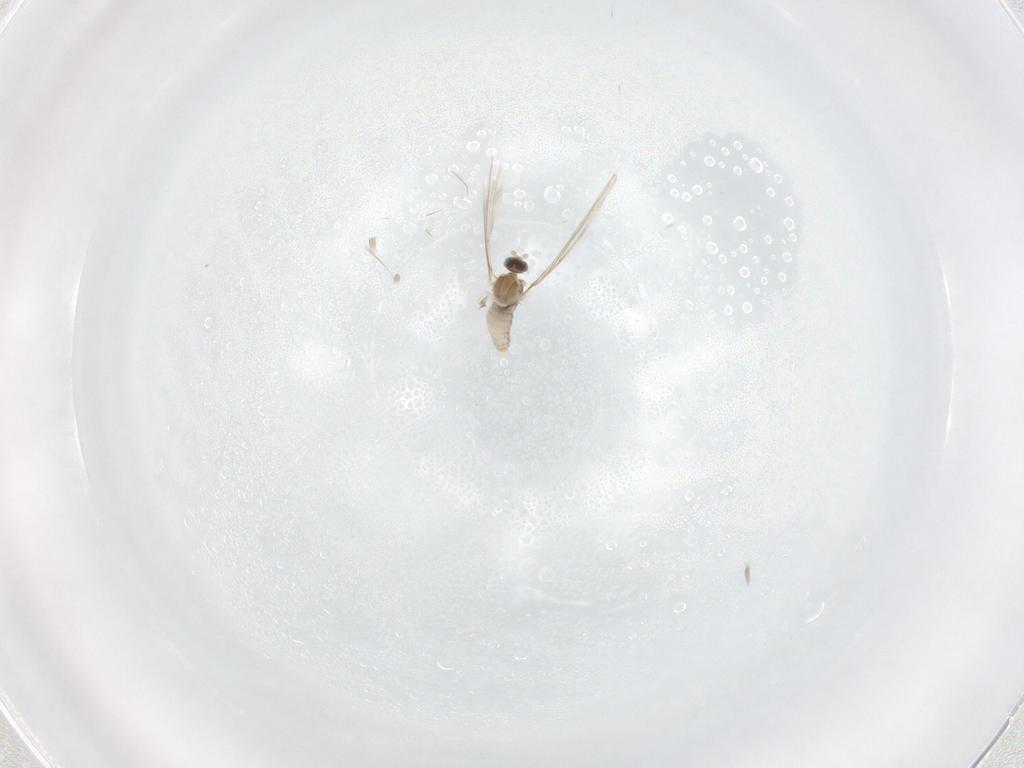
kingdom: Animalia
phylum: Arthropoda
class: Insecta
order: Diptera
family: Cecidomyiidae
